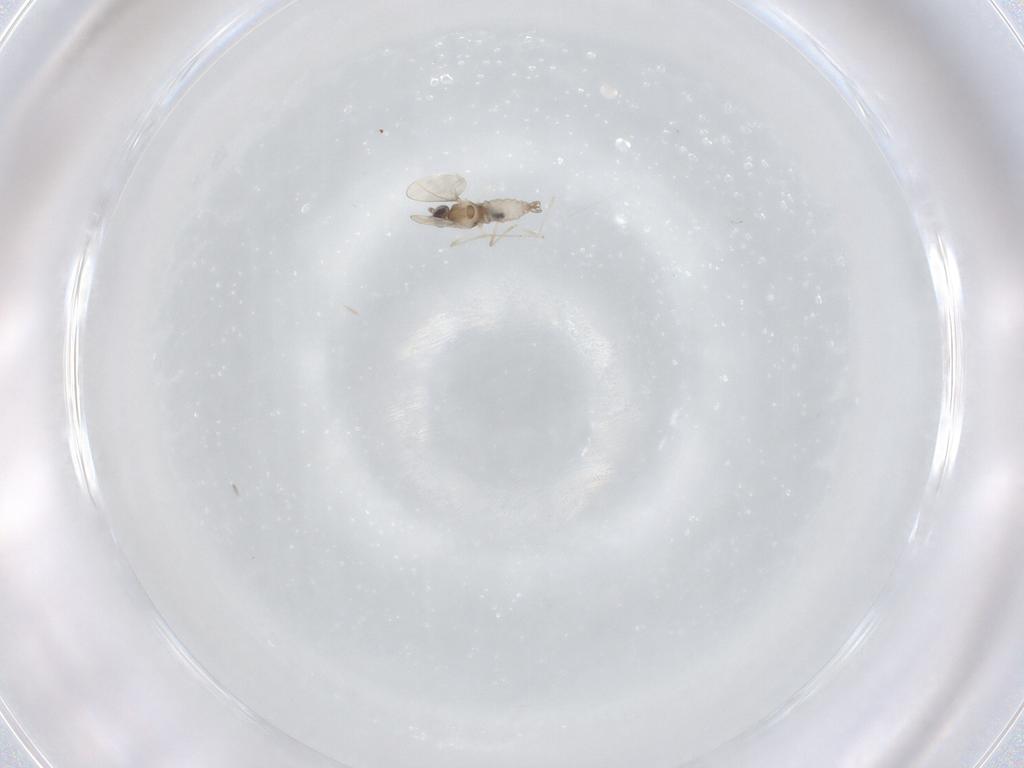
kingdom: Animalia
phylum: Arthropoda
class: Insecta
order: Diptera
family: Cecidomyiidae
